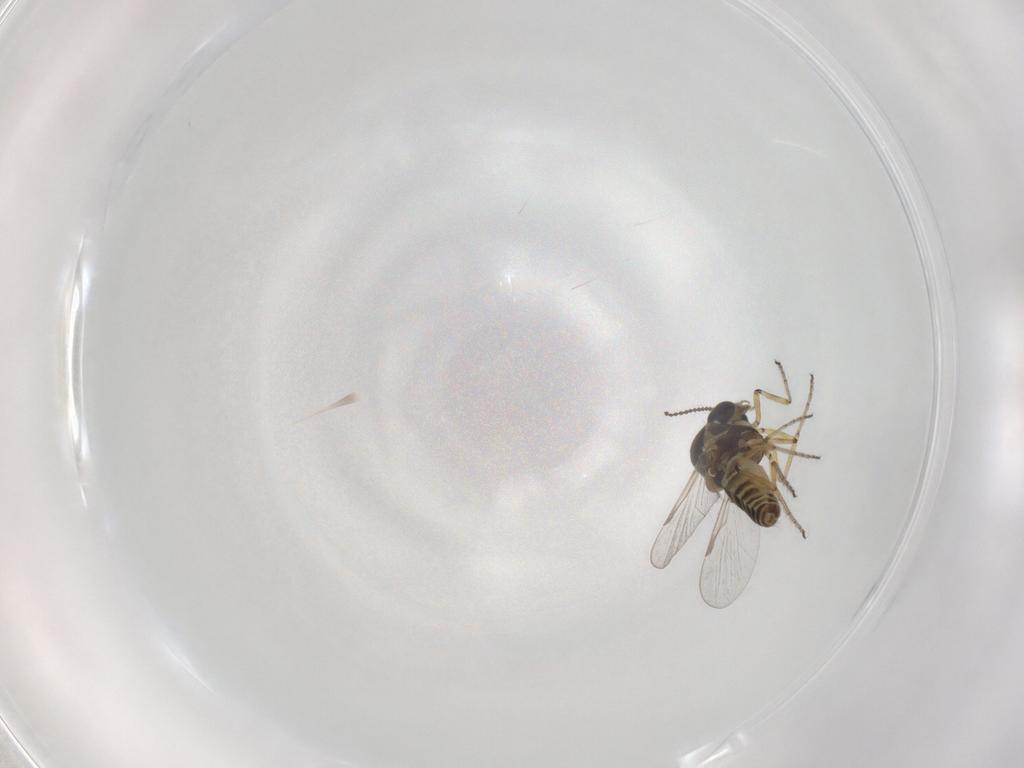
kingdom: Animalia
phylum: Arthropoda
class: Insecta
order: Diptera
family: Ceratopogonidae
